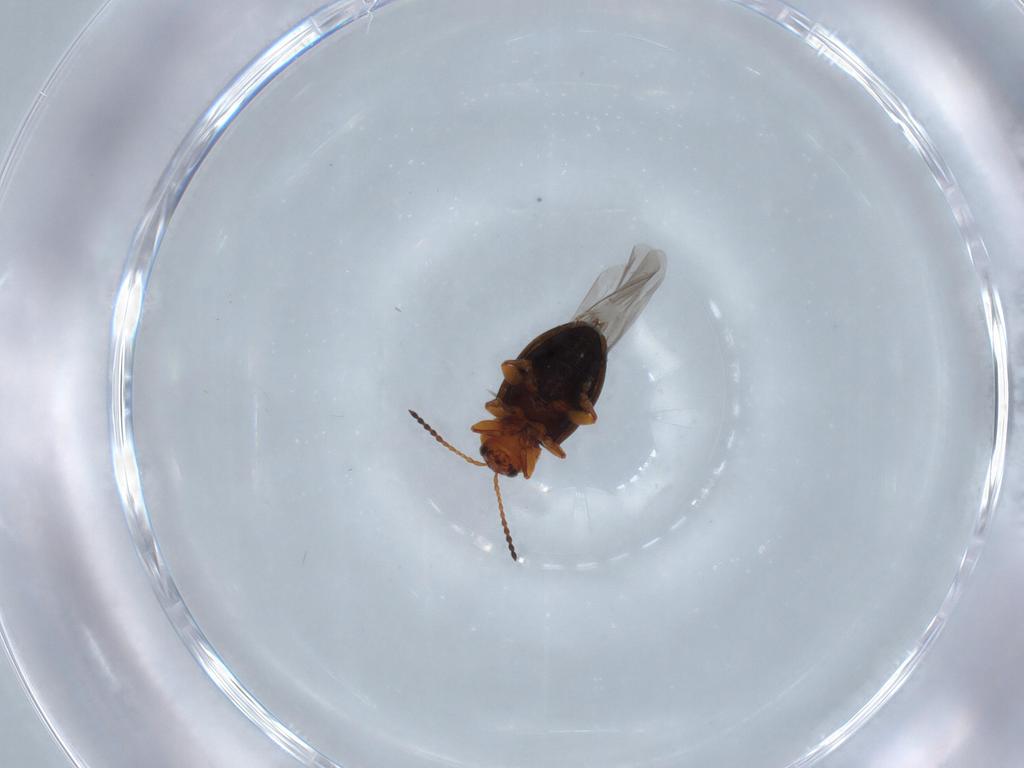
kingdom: Animalia
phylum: Arthropoda
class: Insecta
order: Coleoptera
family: Chrysomelidae
